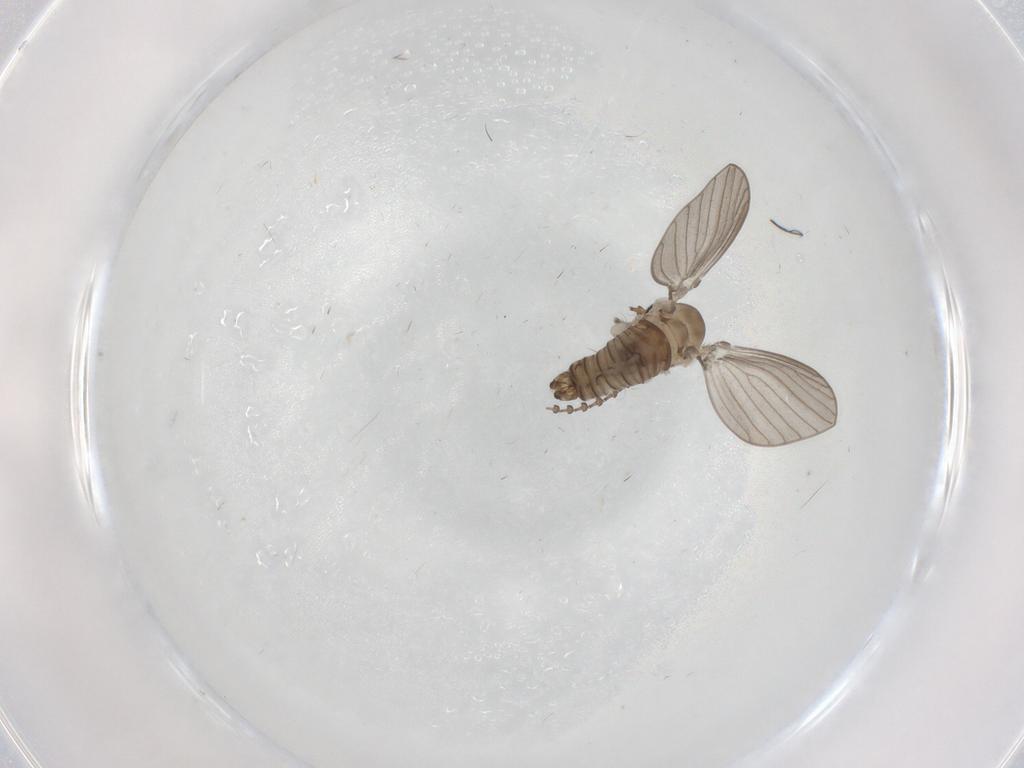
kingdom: Animalia
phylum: Arthropoda
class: Insecta
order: Diptera
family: Psychodidae
